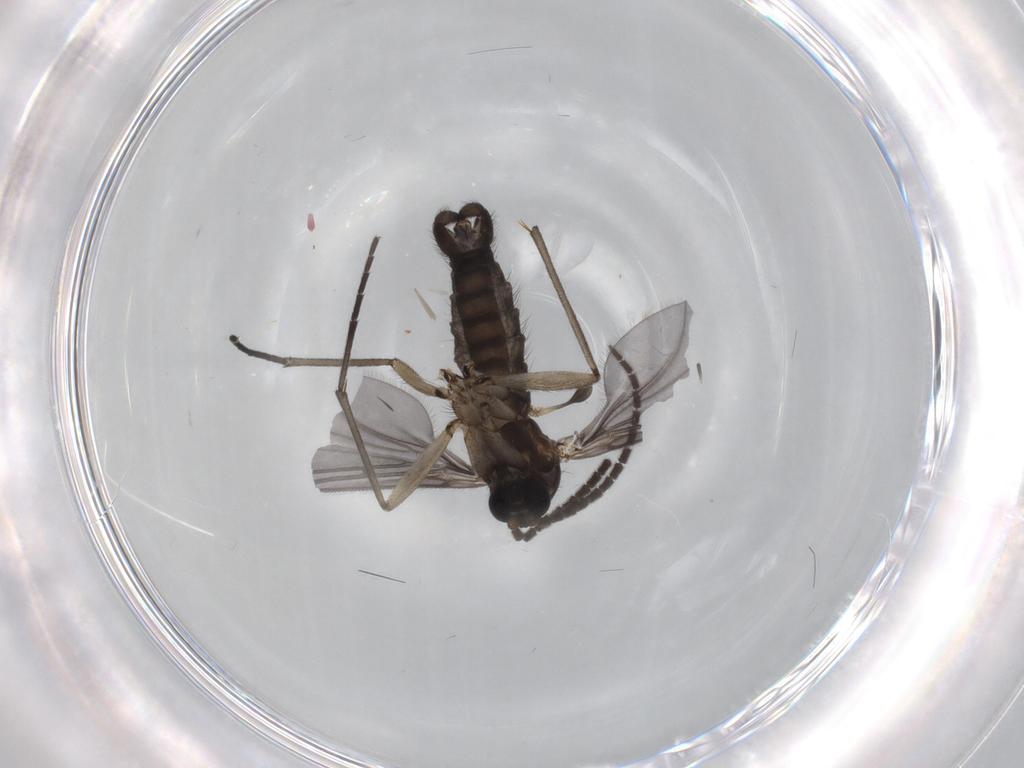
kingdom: Animalia
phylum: Arthropoda
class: Insecta
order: Diptera
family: Sciaridae
